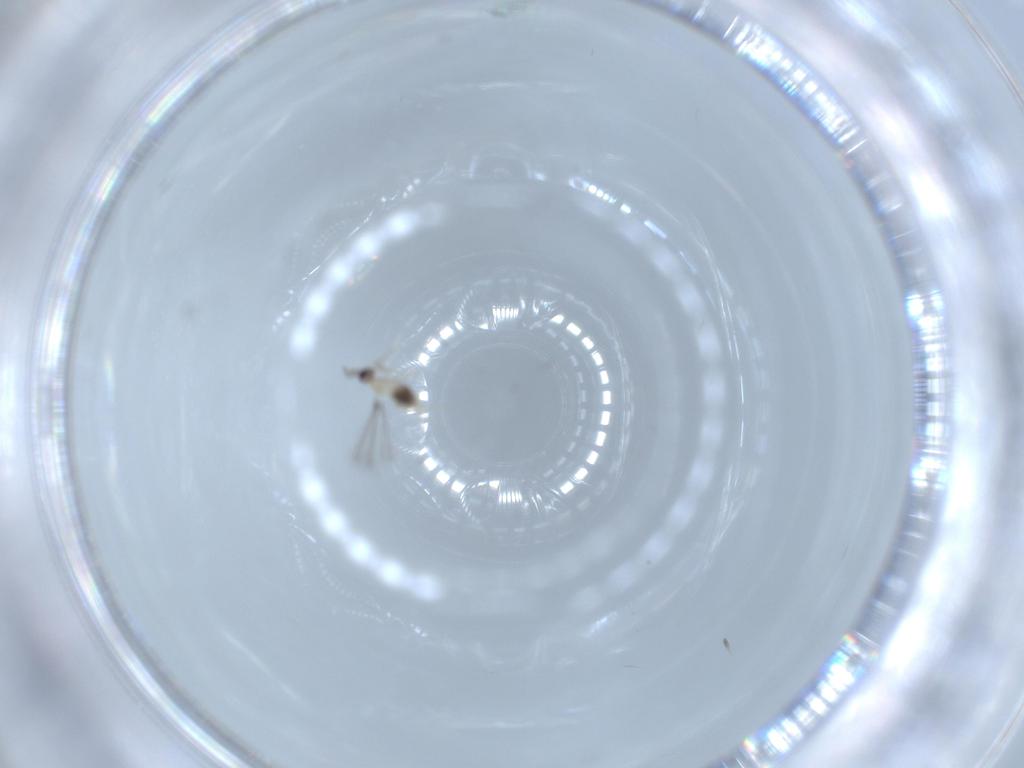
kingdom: Animalia
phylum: Arthropoda
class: Insecta
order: Hymenoptera
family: Mymaridae
